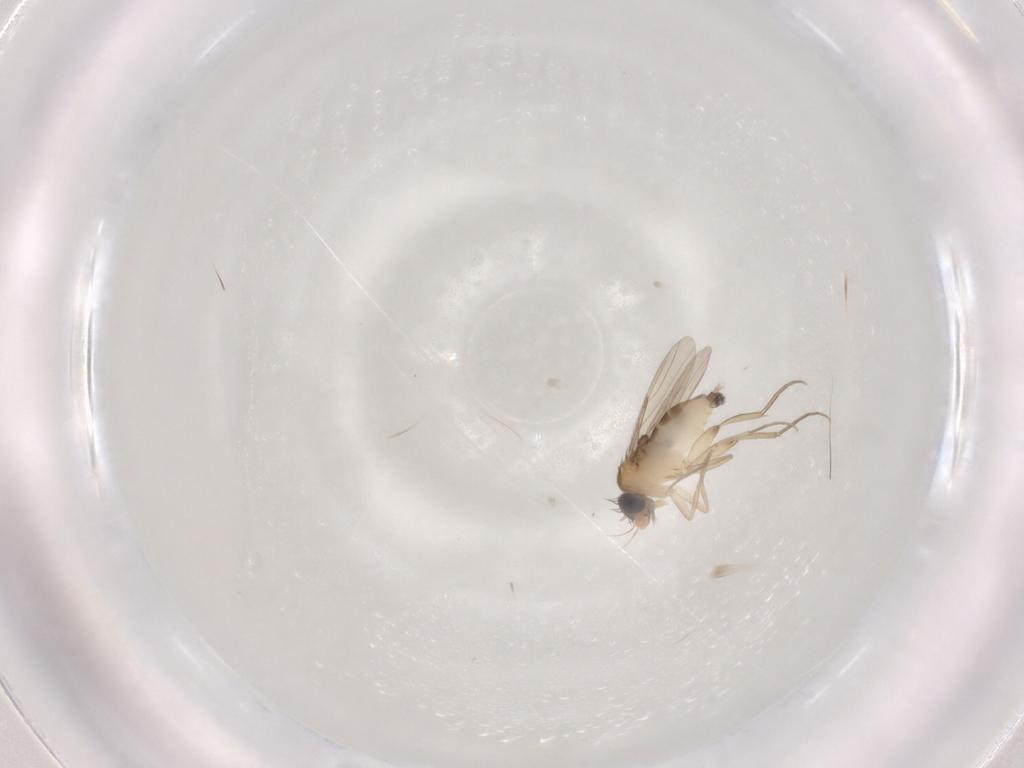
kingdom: Animalia
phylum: Arthropoda
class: Insecta
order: Diptera
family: Phoridae
